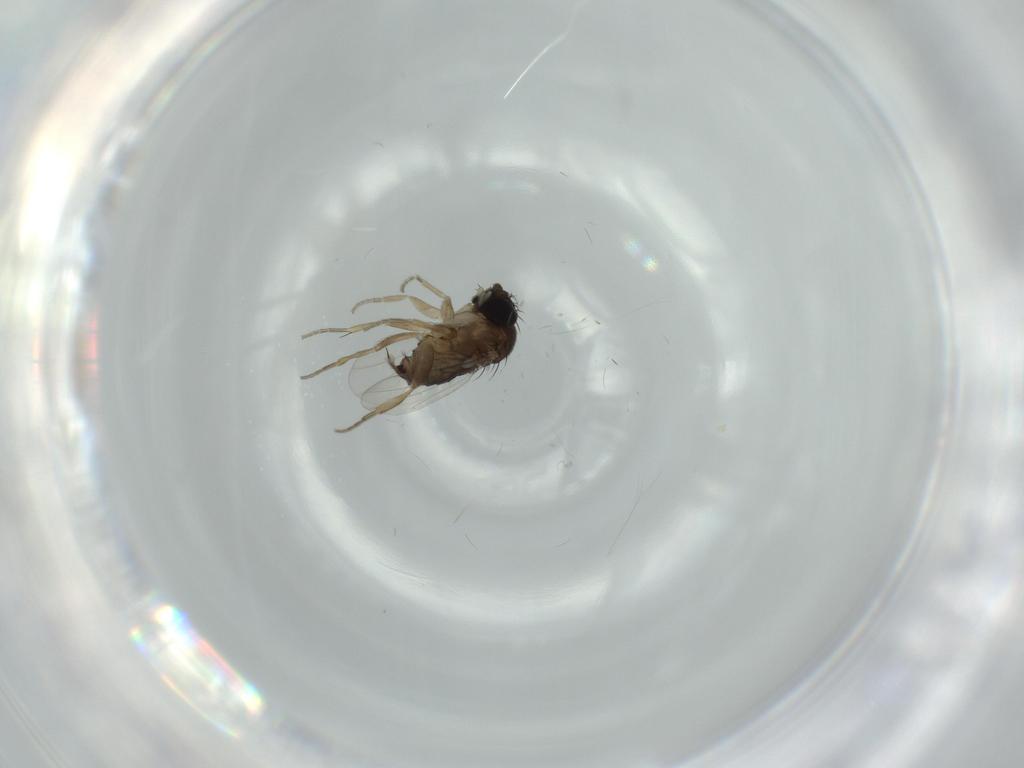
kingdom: Animalia
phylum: Arthropoda
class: Insecta
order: Diptera
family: Phoridae
